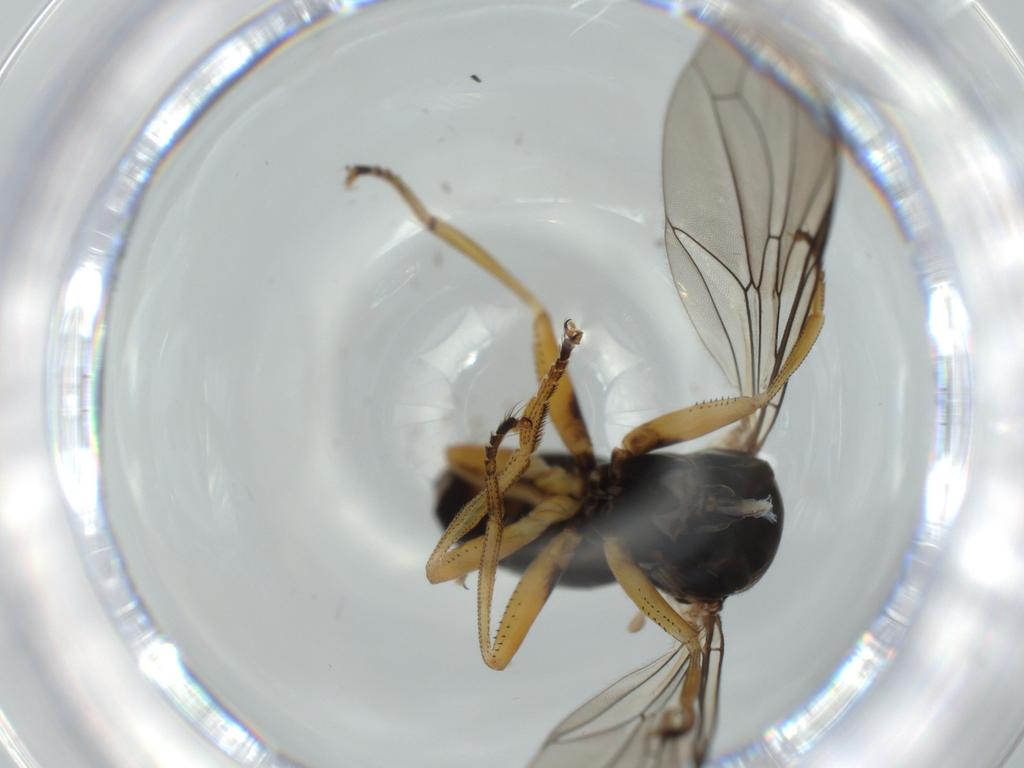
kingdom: Animalia
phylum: Arthropoda
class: Insecta
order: Diptera
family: Sciaridae
